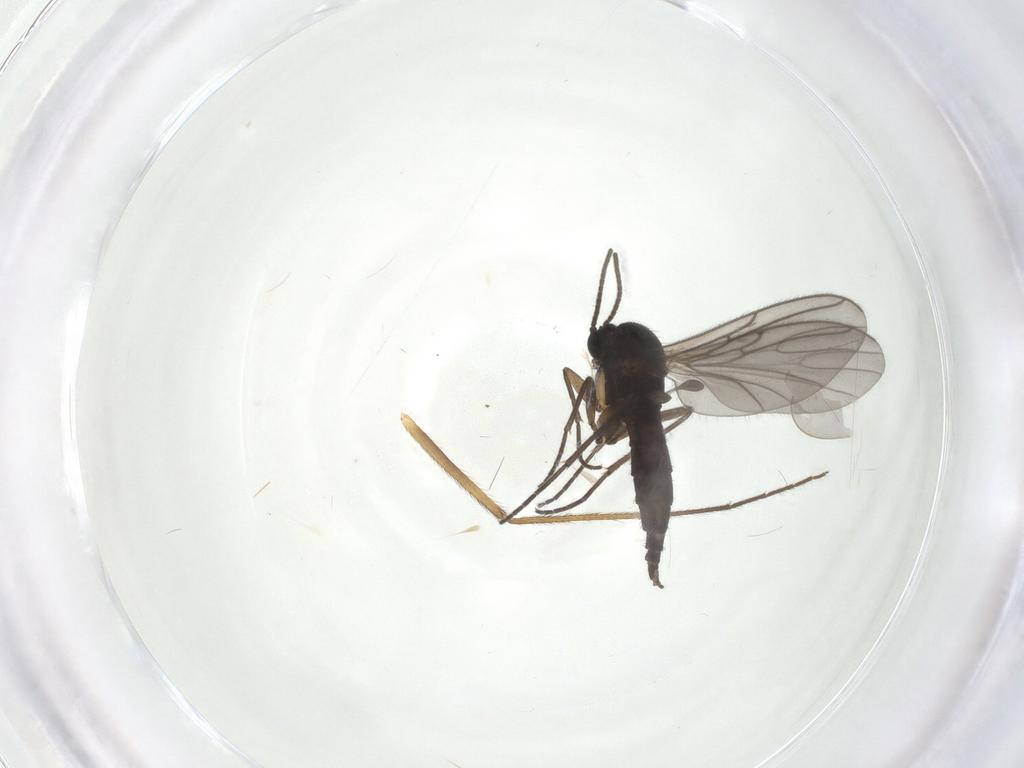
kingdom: Animalia
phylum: Arthropoda
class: Insecta
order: Diptera
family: Sciaridae
